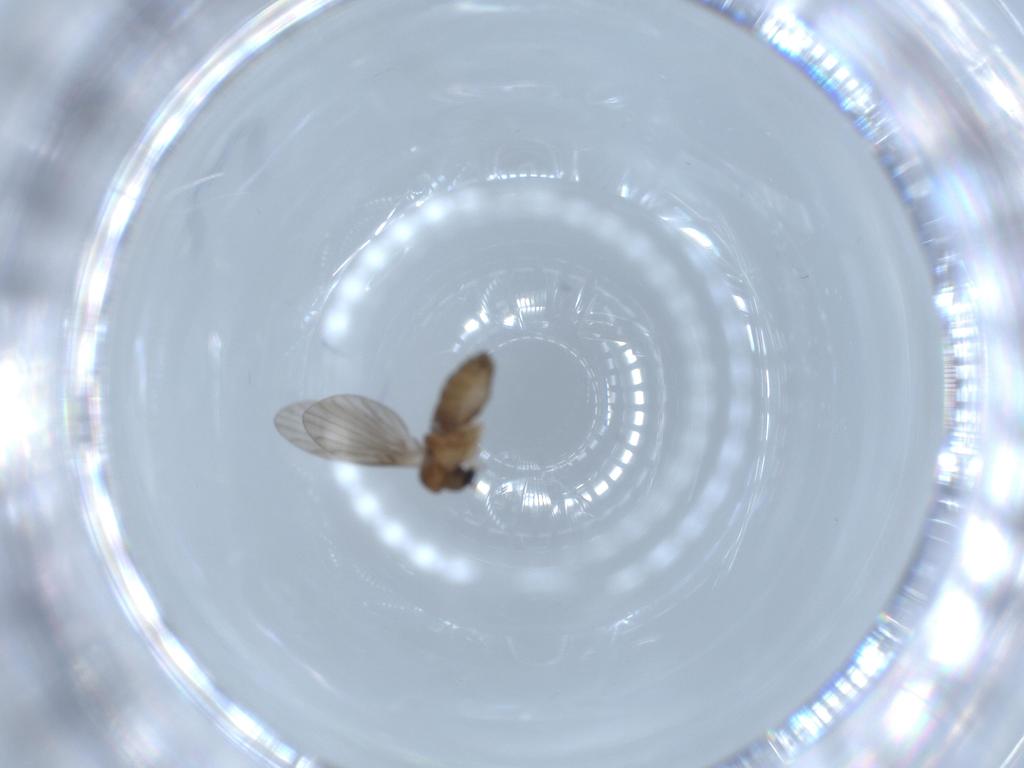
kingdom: Animalia
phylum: Arthropoda
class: Insecta
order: Diptera
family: Psychodidae
